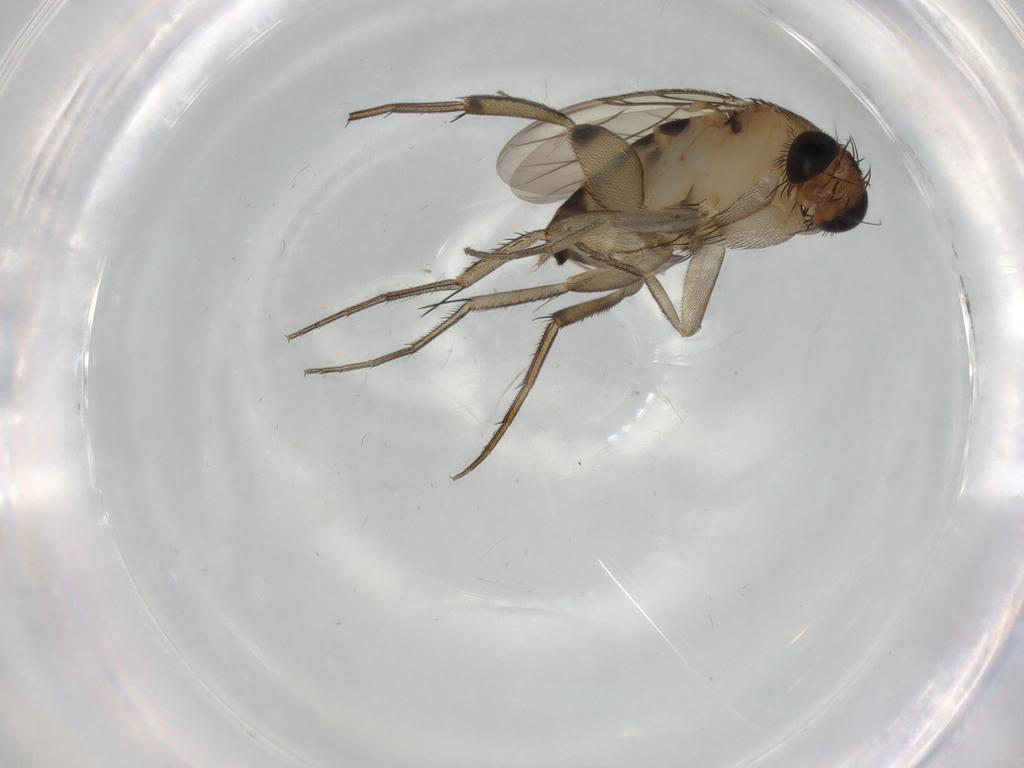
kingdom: Animalia
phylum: Arthropoda
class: Insecta
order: Diptera
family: Phoridae
